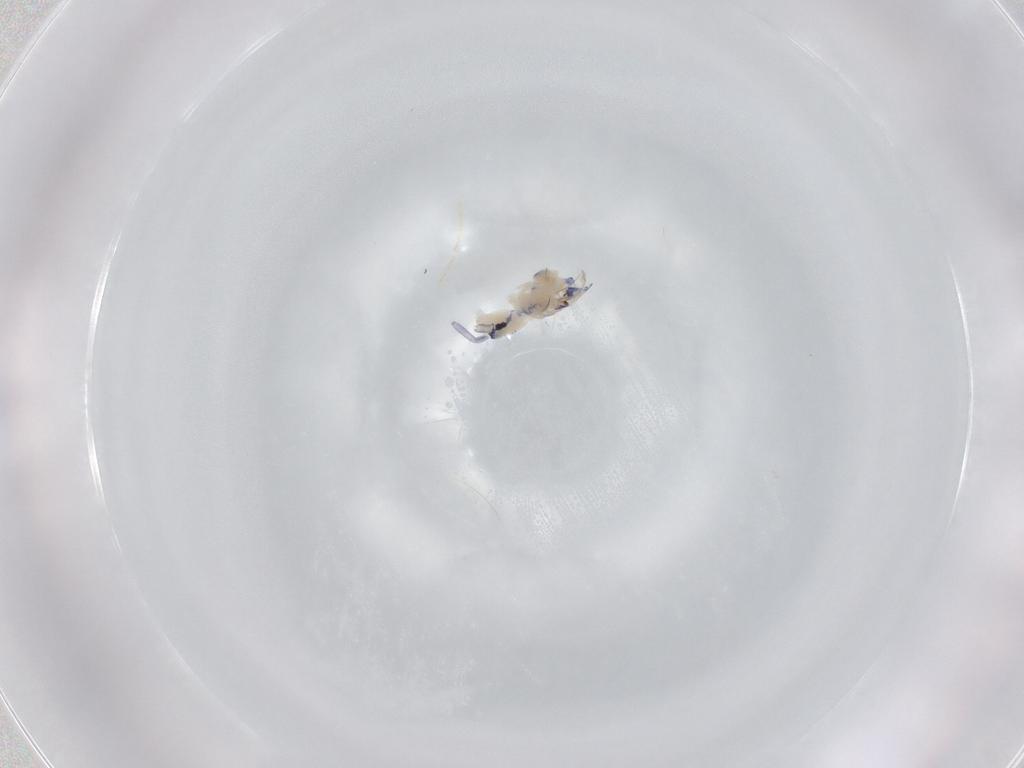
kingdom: Animalia
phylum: Arthropoda
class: Collembola
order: Entomobryomorpha
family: Entomobryidae
